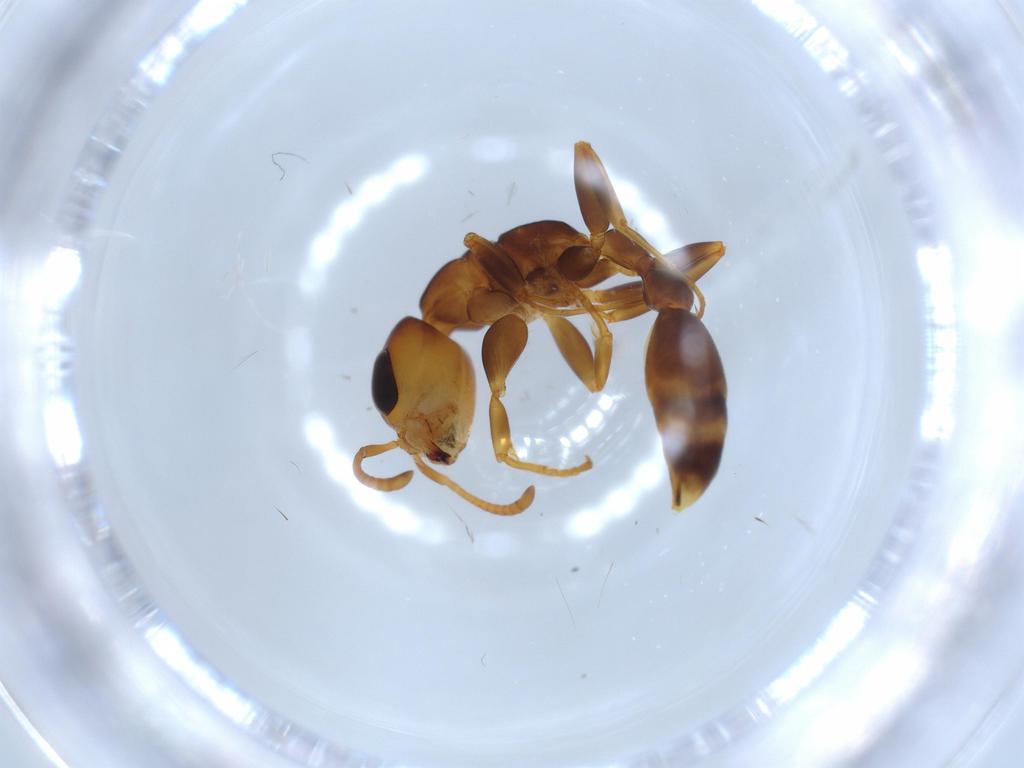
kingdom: Animalia
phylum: Arthropoda
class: Insecta
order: Hymenoptera
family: Formicidae
